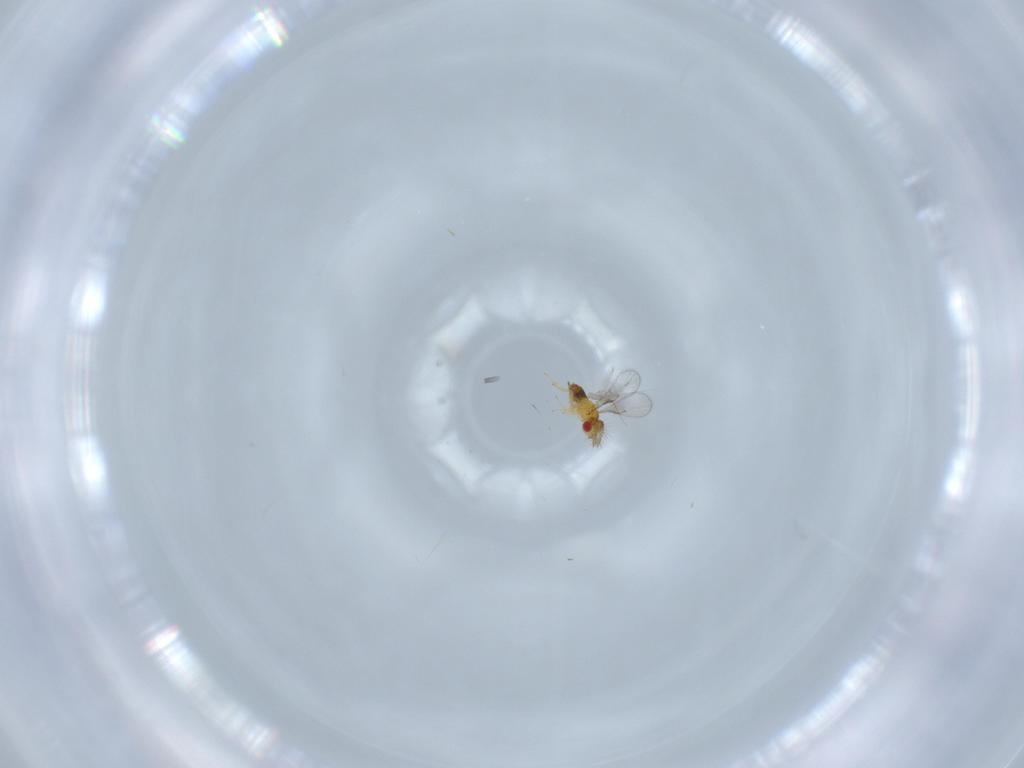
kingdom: Animalia
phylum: Arthropoda
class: Insecta
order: Hymenoptera
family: Trichogrammatidae
